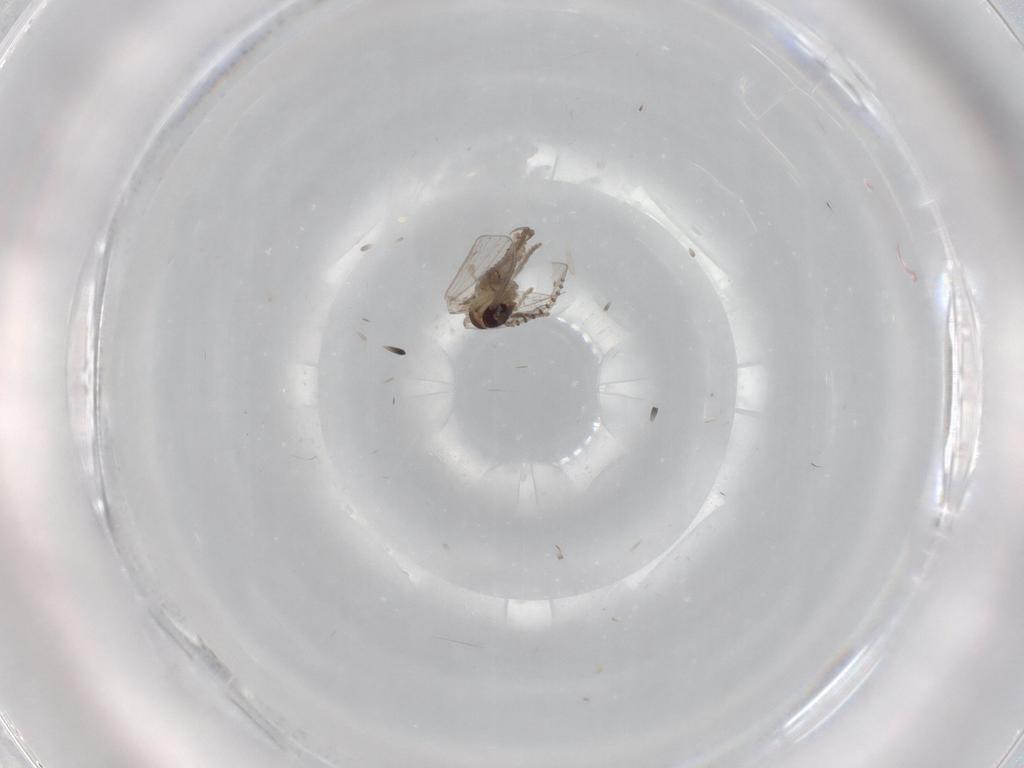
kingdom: Animalia
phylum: Arthropoda
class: Insecta
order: Diptera
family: Psychodidae
